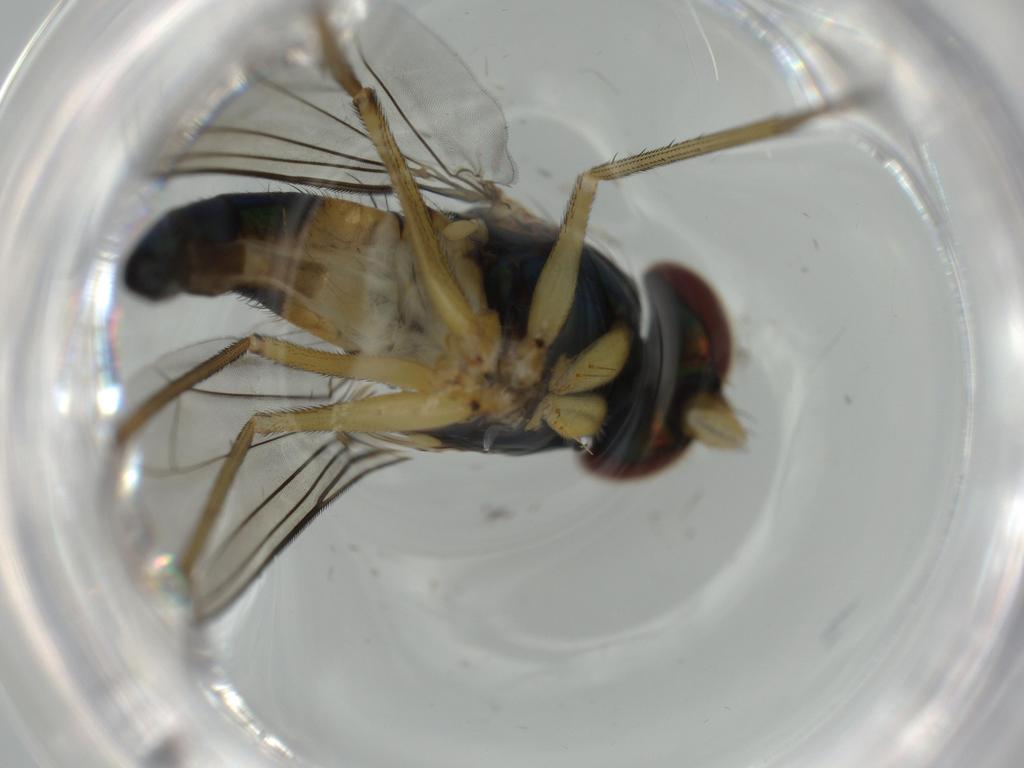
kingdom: Animalia
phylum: Arthropoda
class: Insecta
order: Diptera
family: Dolichopodidae
